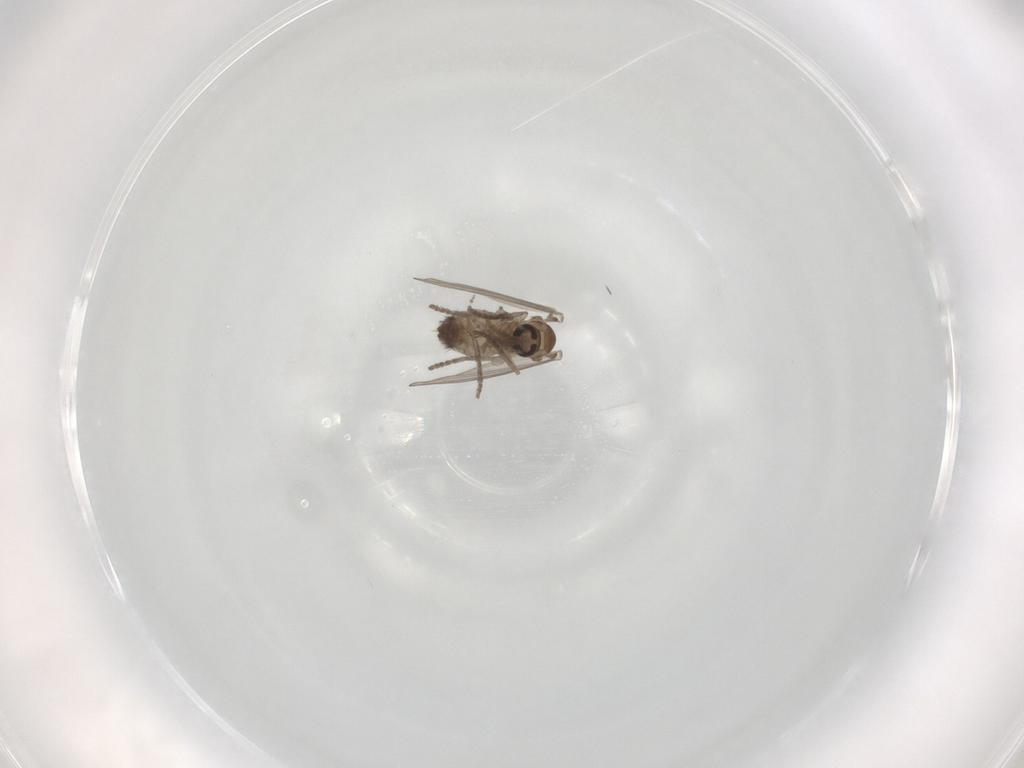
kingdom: Animalia
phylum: Arthropoda
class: Insecta
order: Diptera
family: Psychodidae
